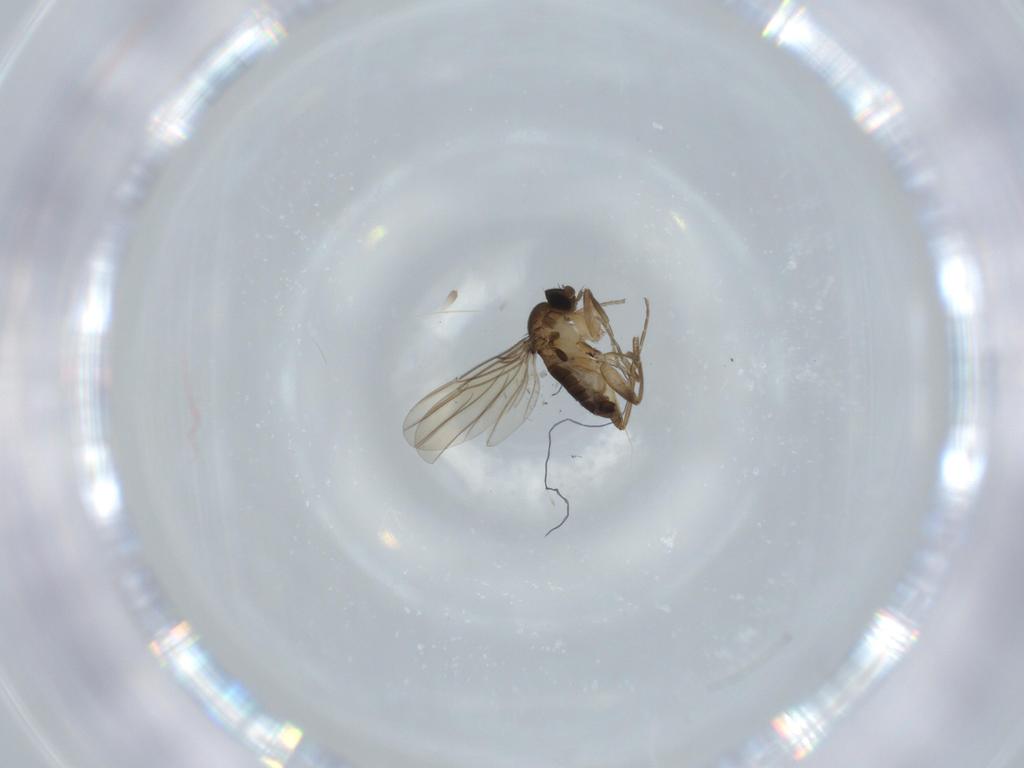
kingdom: Animalia
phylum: Arthropoda
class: Insecta
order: Diptera
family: Phoridae
